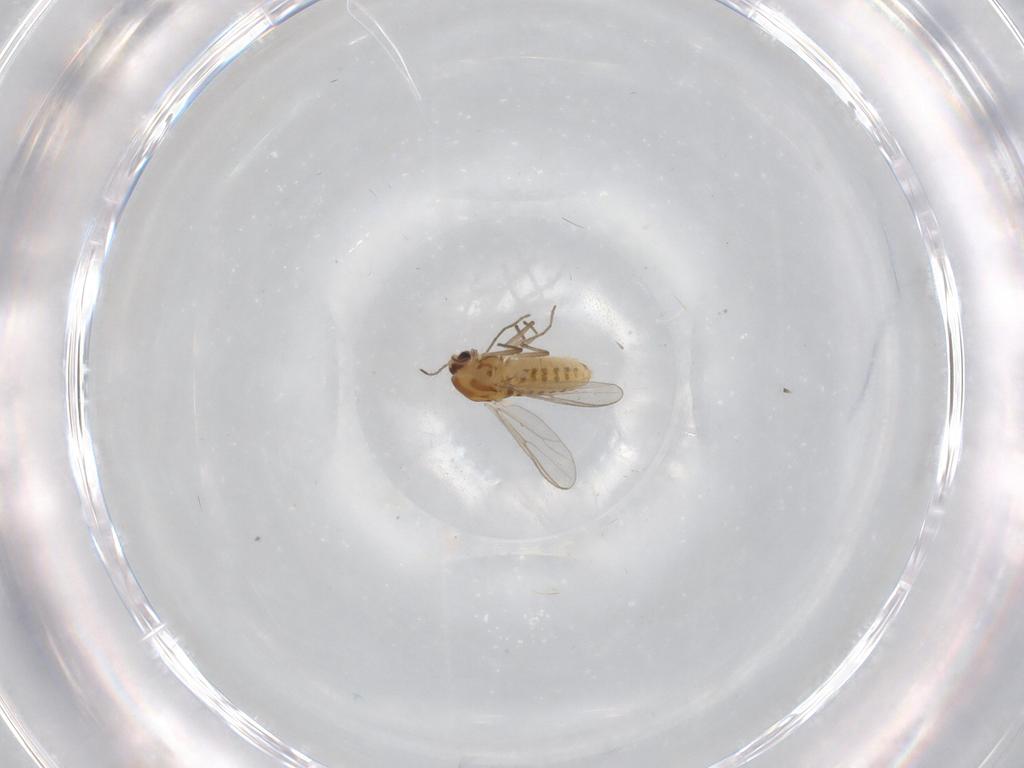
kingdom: Animalia
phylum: Arthropoda
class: Insecta
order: Diptera
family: Chironomidae
